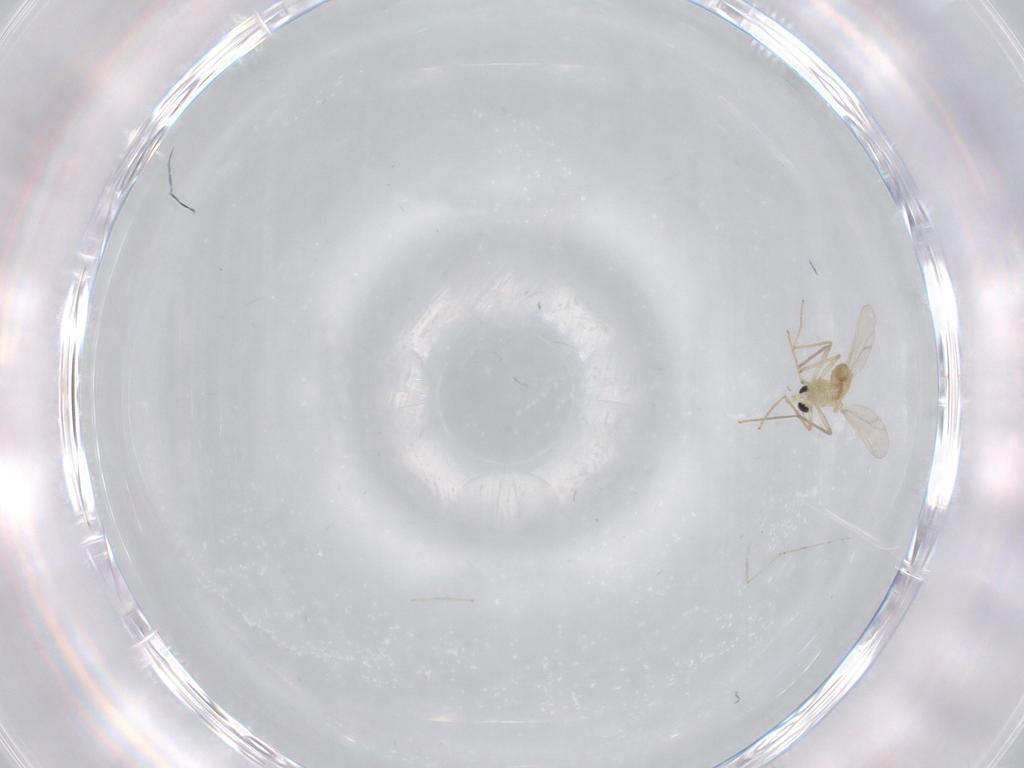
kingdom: Animalia
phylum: Arthropoda
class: Insecta
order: Diptera
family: Chironomidae
